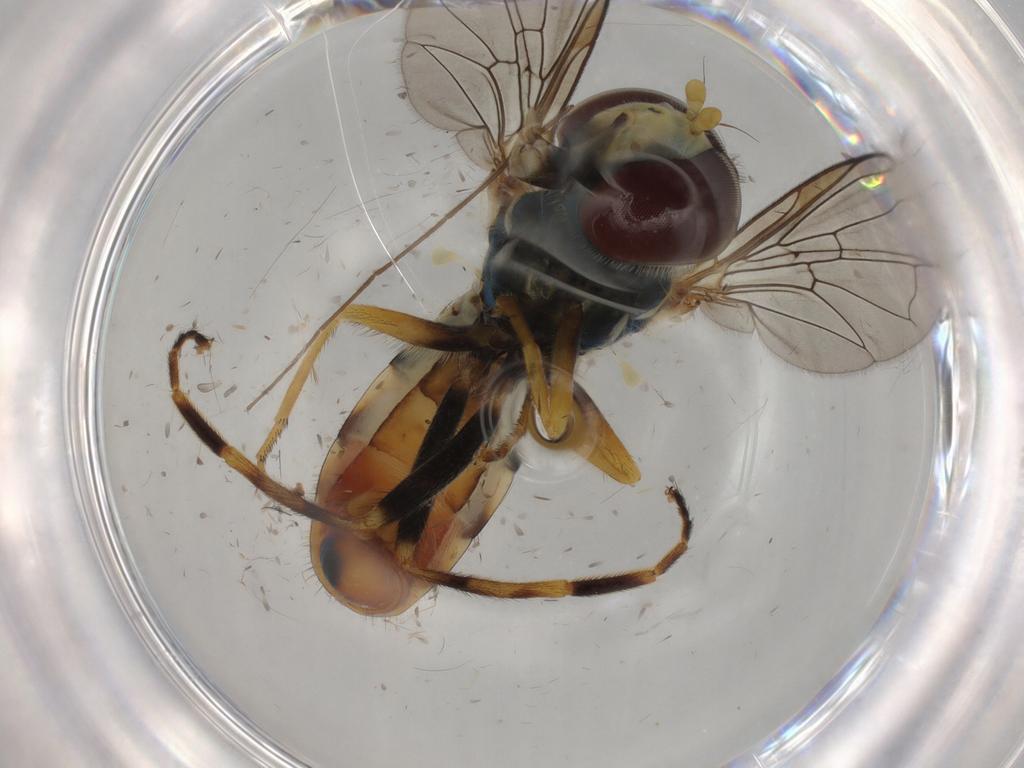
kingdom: Animalia
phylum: Arthropoda
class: Insecta
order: Diptera
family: Syrphidae
